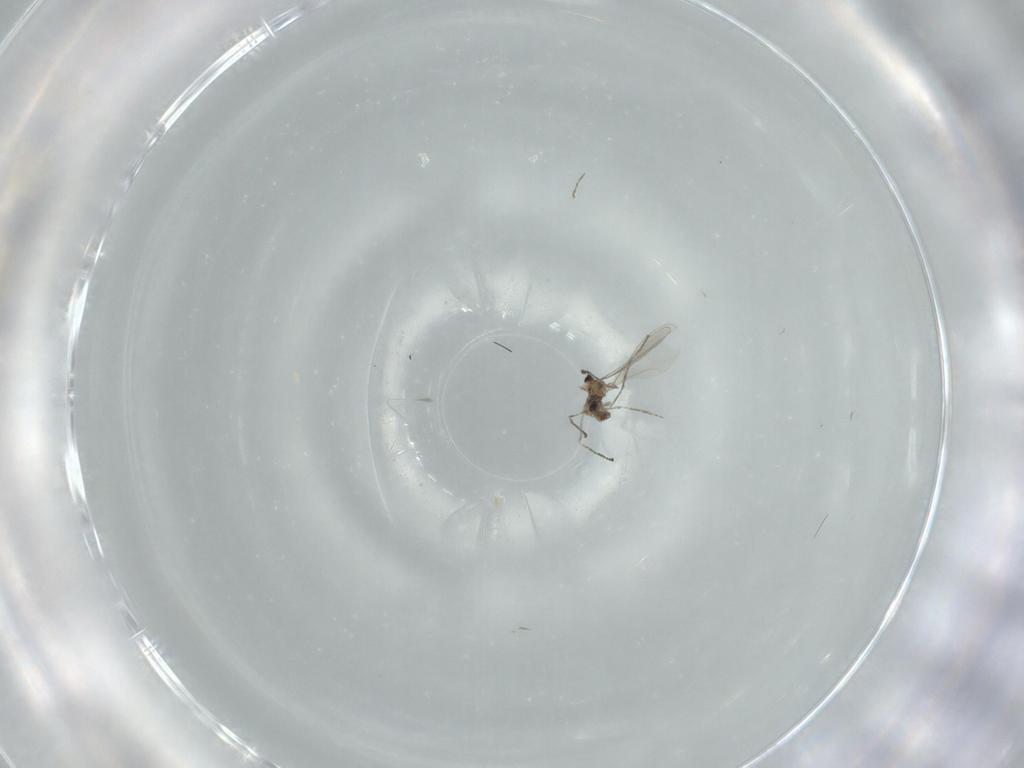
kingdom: Animalia
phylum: Arthropoda
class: Insecta
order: Diptera
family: Cecidomyiidae
